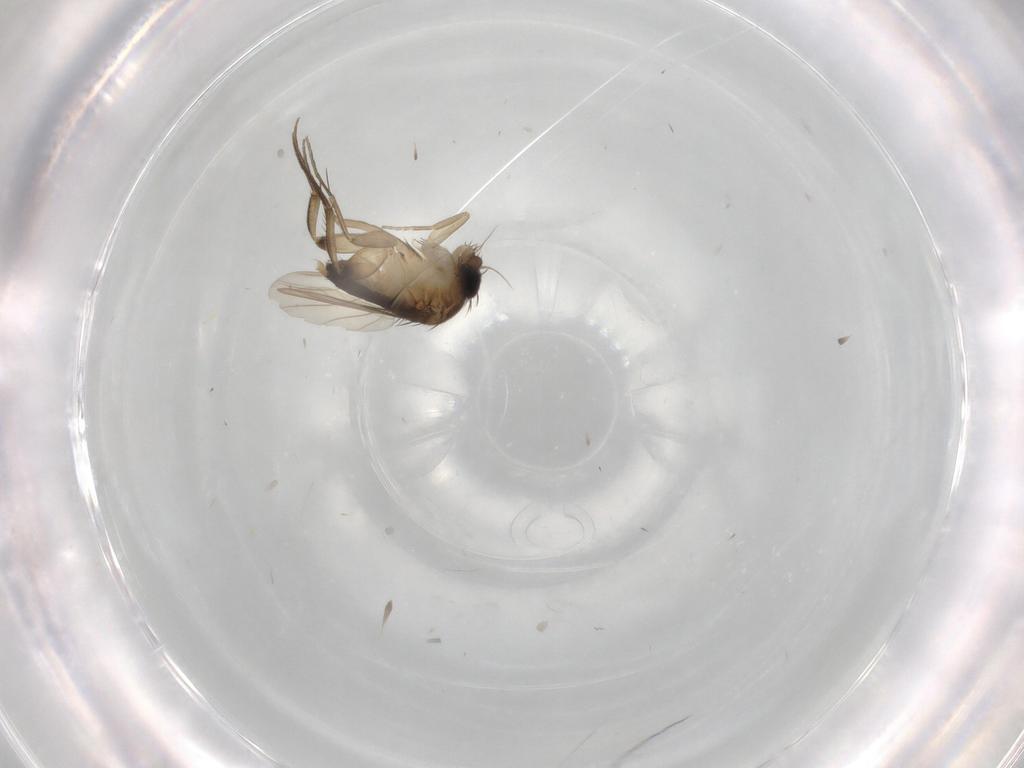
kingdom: Animalia
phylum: Arthropoda
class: Insecta
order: Diptera
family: Phoridae
